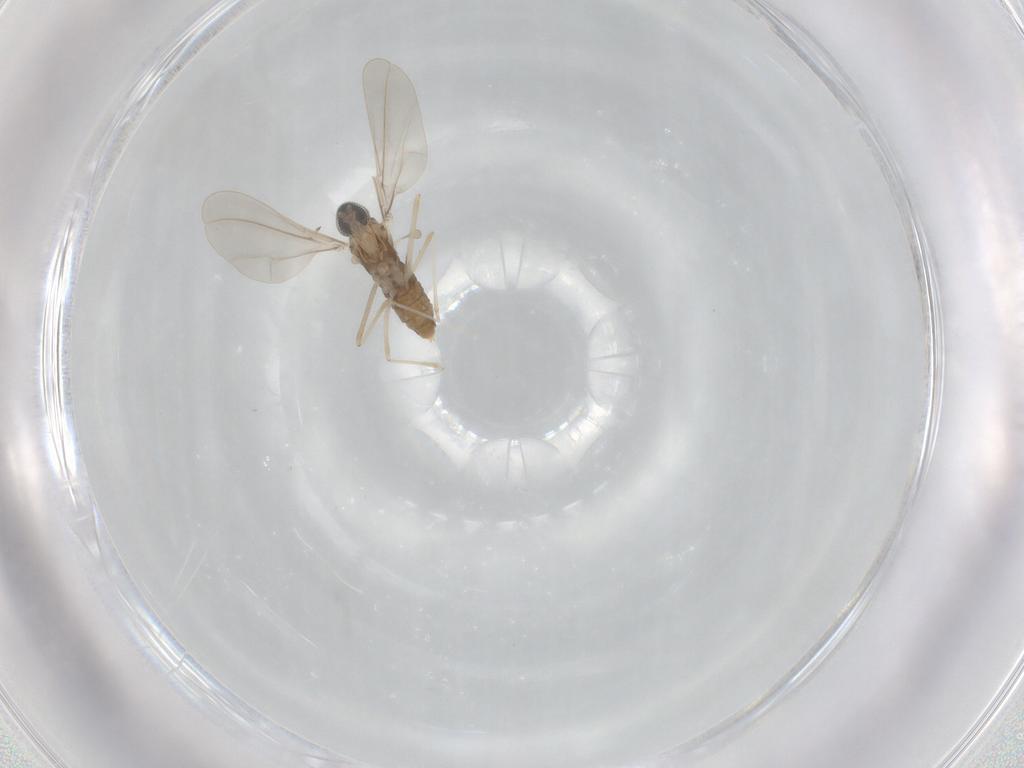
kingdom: Animalia
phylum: Arthropoda
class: Insecta
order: Diptera
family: Cecidomyiidae
